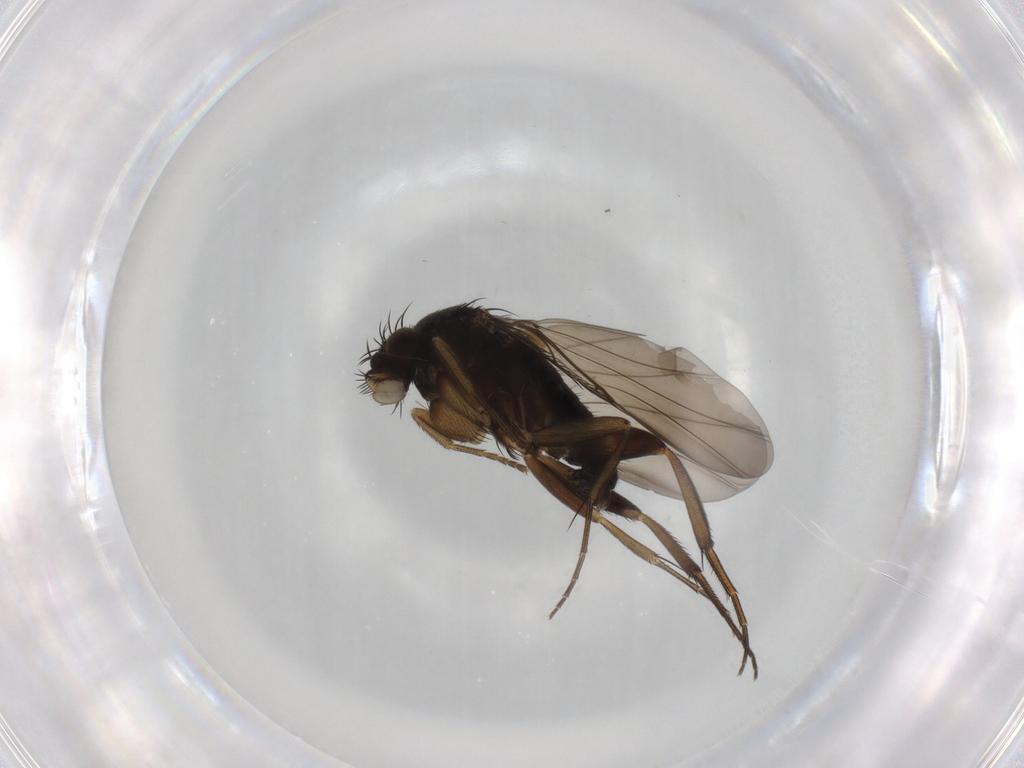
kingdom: Animalia
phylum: Arthropoda
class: Insecta
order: Diptera
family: Phoridae
